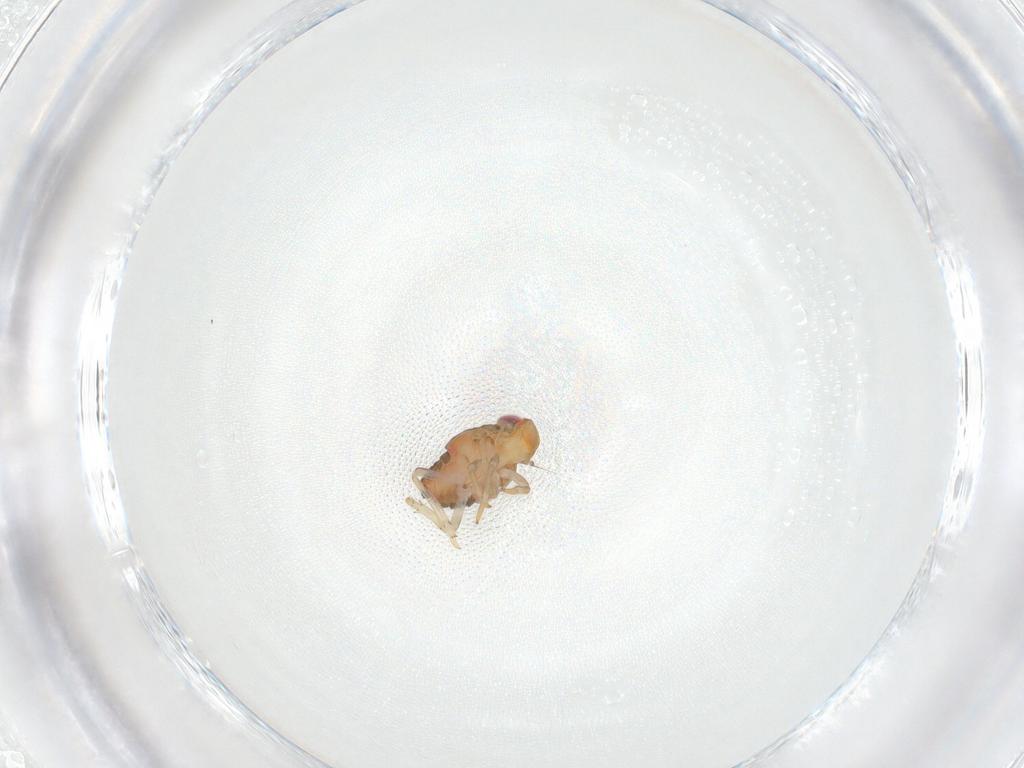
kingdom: Animalia
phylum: Arthropoda
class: Insecta
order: Hemiptera
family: Issidae
